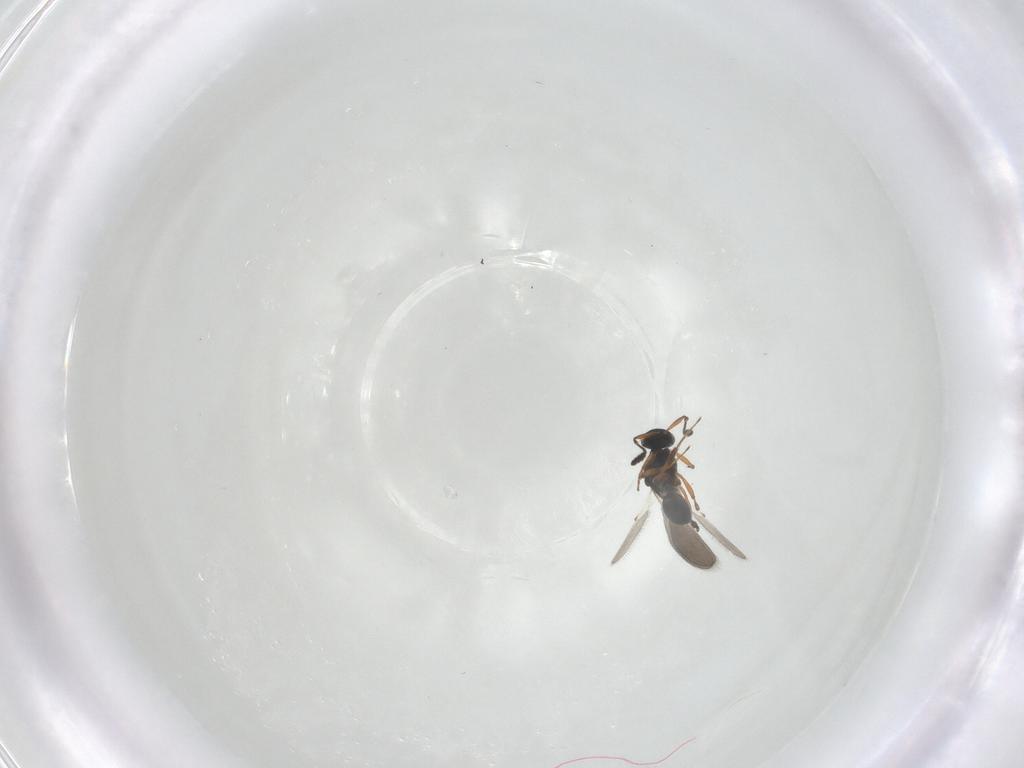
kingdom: Animalia
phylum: Arthropoda
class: Insecta
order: Hymenoptera
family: Platygastridae
